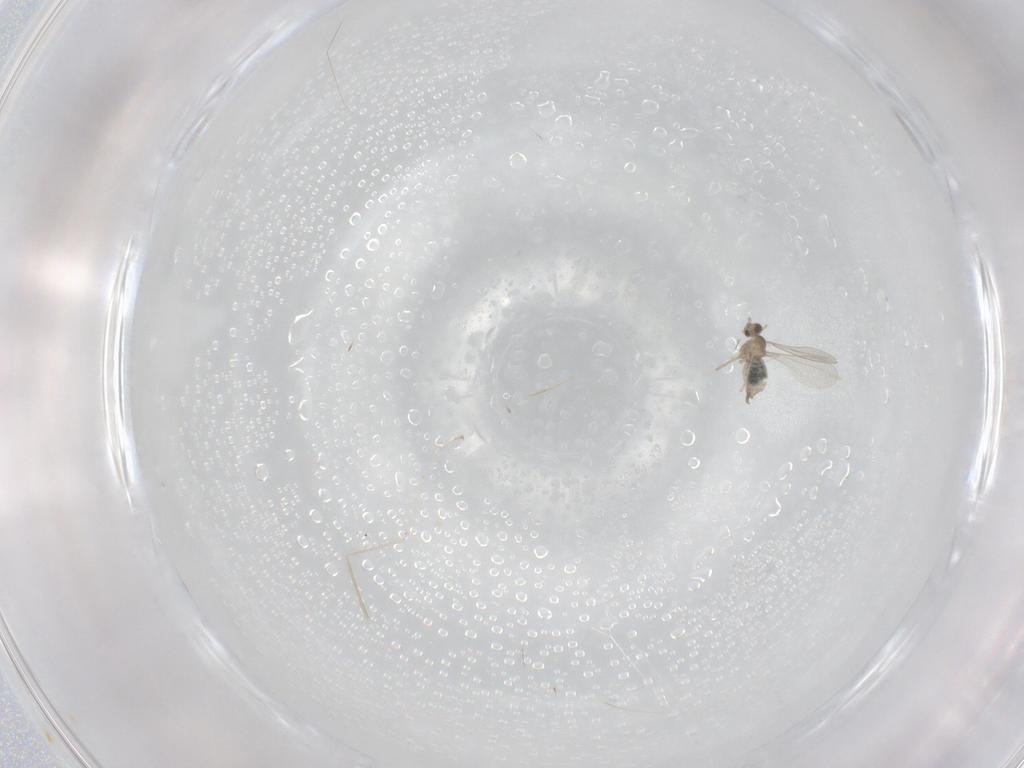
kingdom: Animalia
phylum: Arthropoda
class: Insecta
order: Diptera
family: Cecidomyiidae
